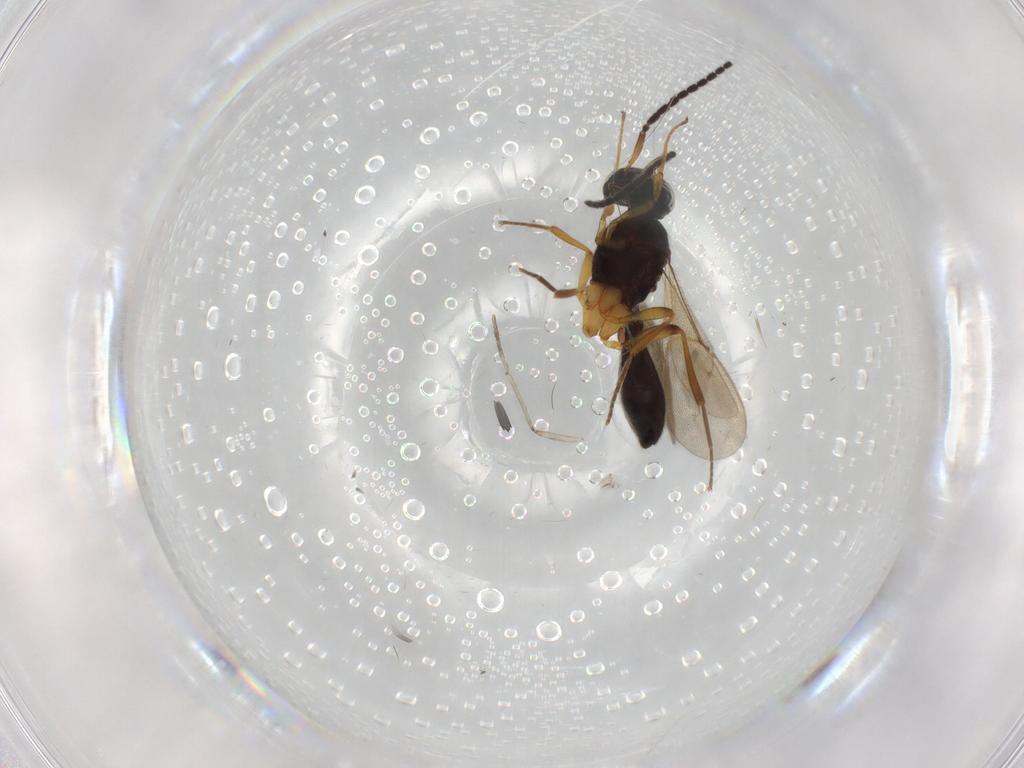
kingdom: Animalia
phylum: Arthropoda
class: Insecta
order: Hymenoptera
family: Scelionidae
